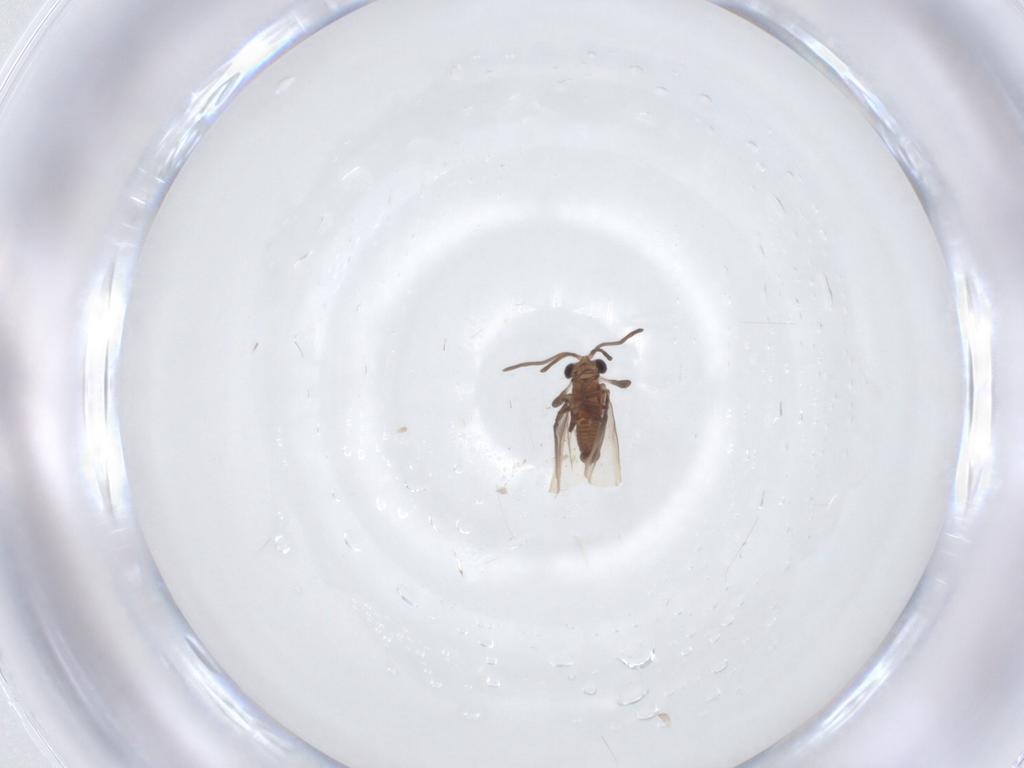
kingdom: Animalia
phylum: Arthropoda
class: Insecta
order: Strepsiptera
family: Myrmecolacidae
